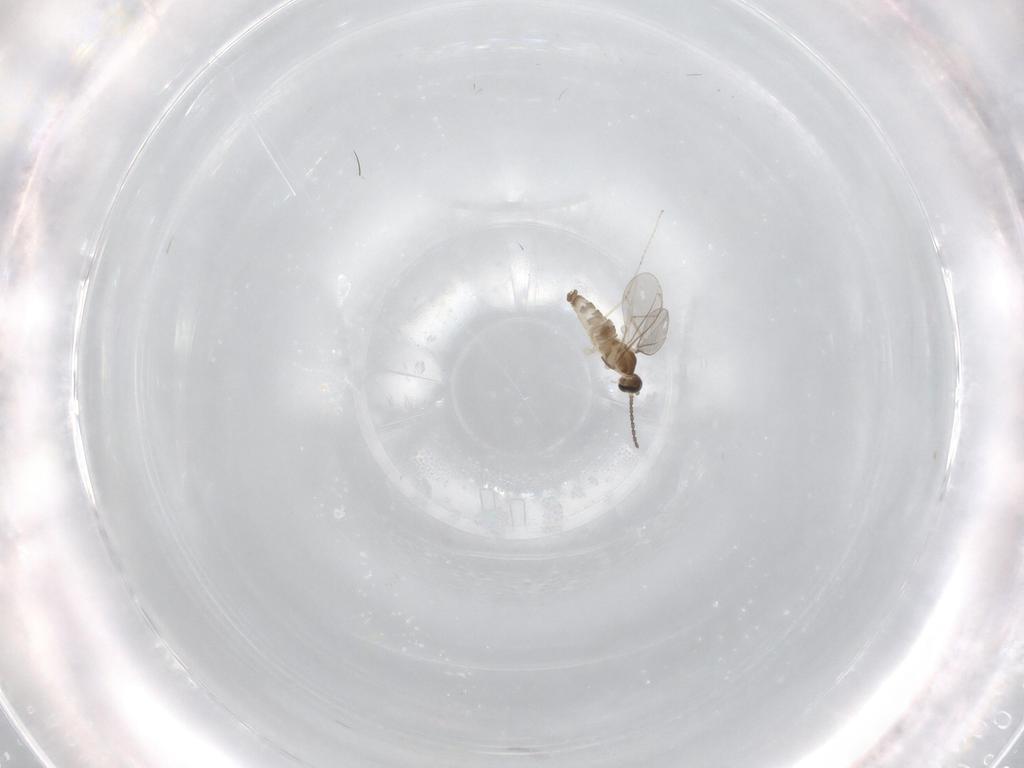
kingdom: Animalia
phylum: Arthropoda
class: Insecta
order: Diptera
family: Cecidomyiidae
